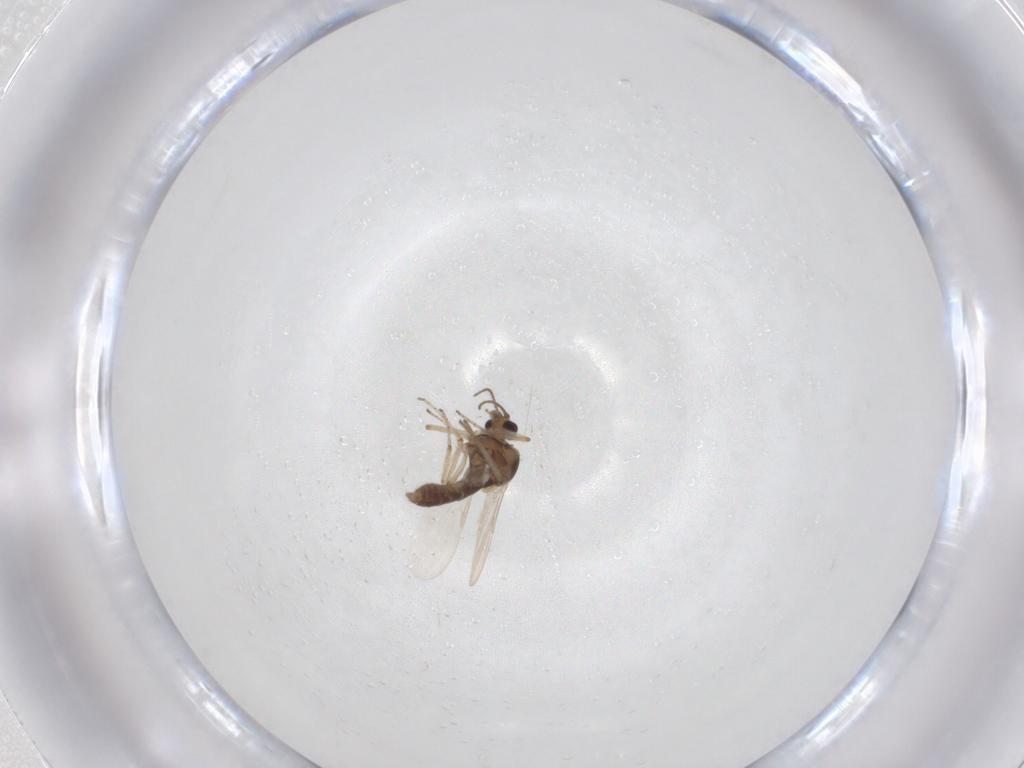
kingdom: Animalia
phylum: Arthropoda
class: Insecta
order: Diptera
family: Ceratopogonidae
